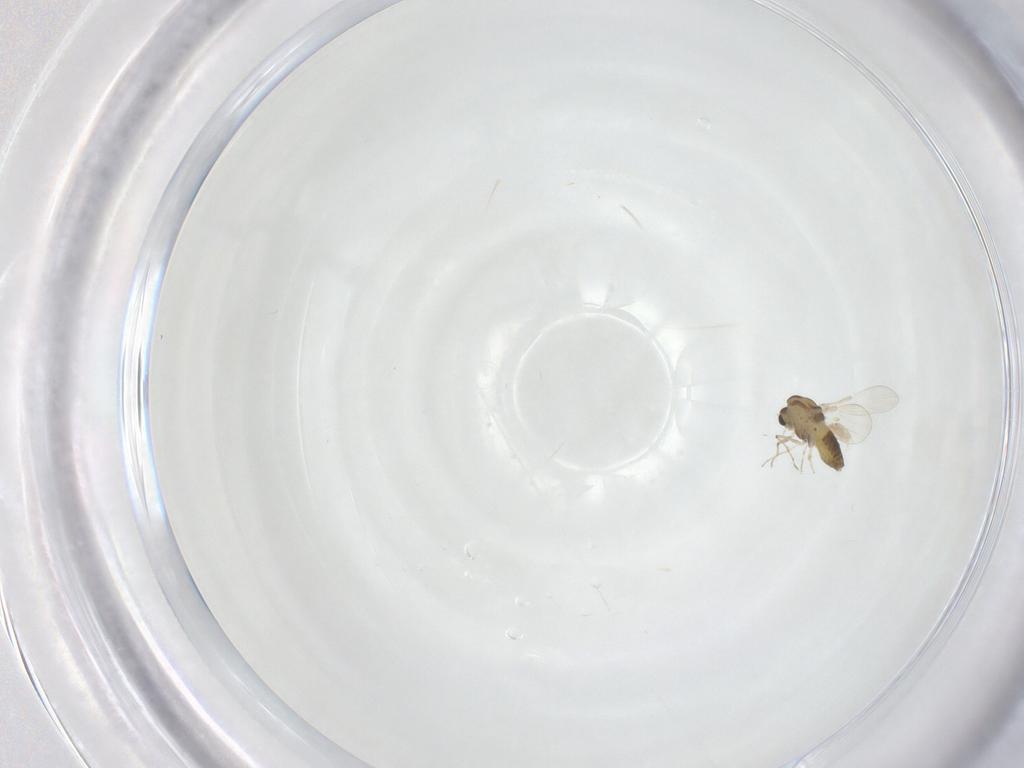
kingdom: Animalia
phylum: Arthropoda
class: Insecta
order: Diptera
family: Chironomidae
